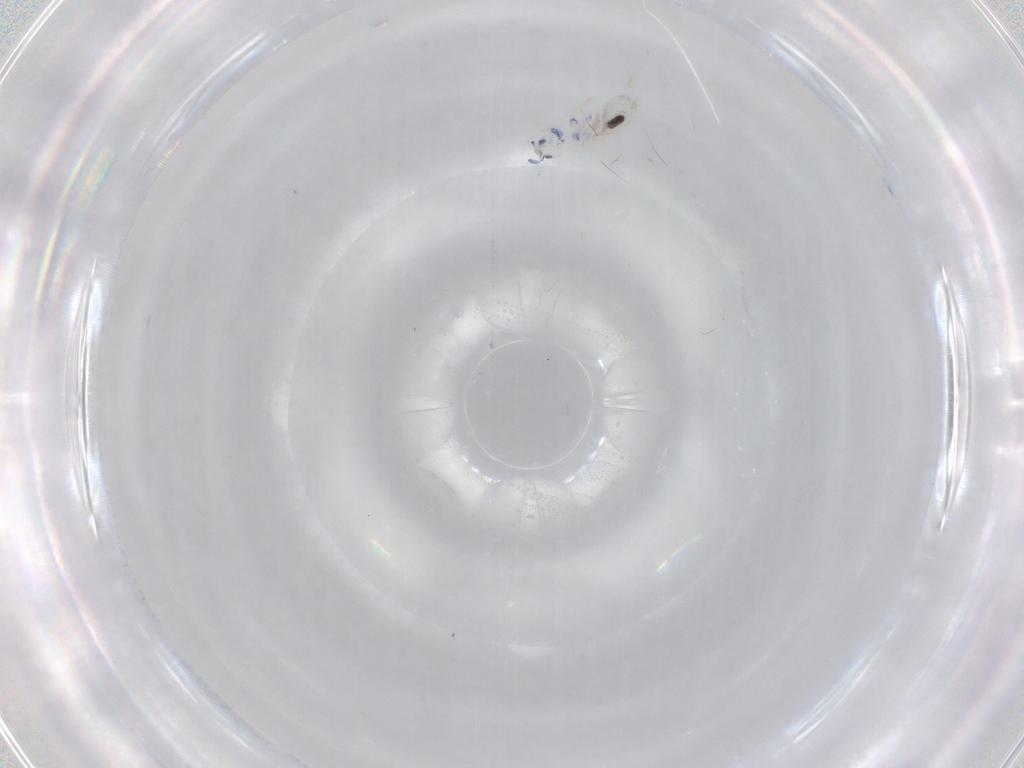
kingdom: Animalia
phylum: Arthropoda
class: Collembola
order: Entomobryomorpha
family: Entomobryidae
